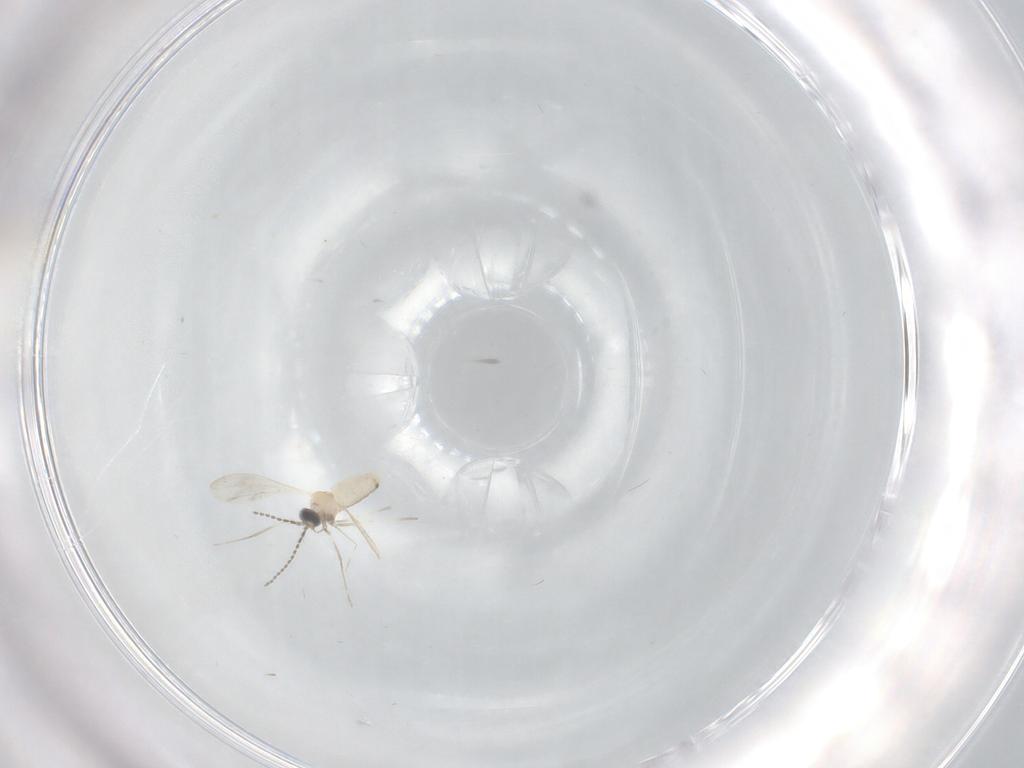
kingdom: Animalia
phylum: Arthropoda
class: Insecta
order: Diptera
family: Cecidomyiidae
